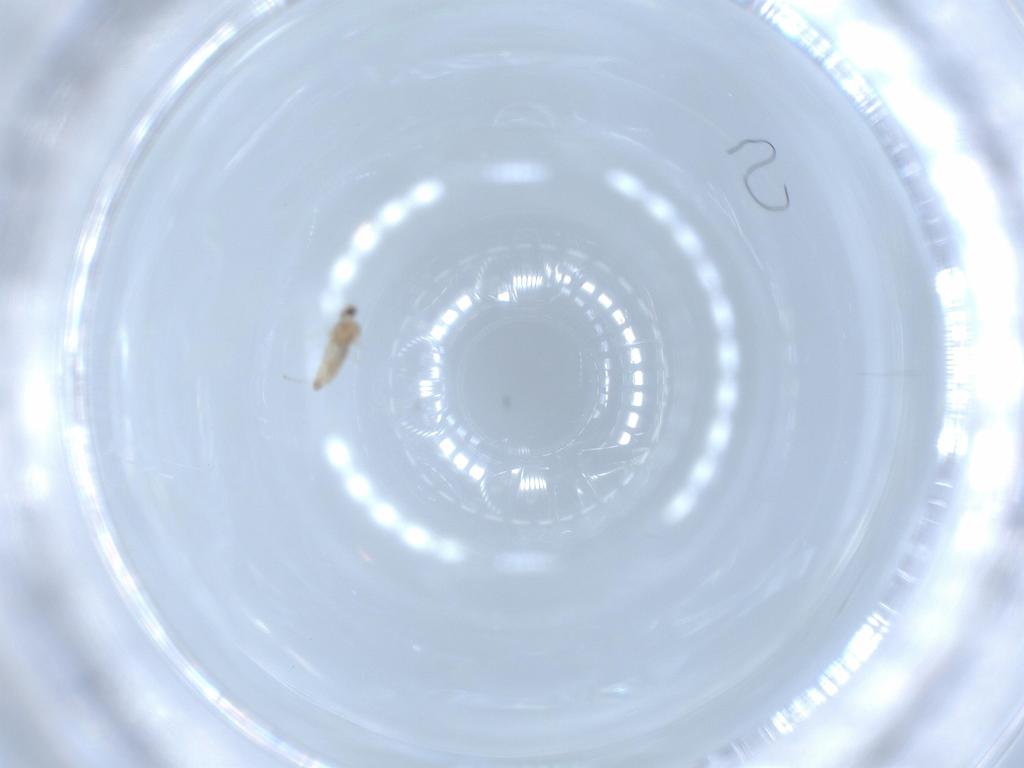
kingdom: Animalia
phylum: Arthropoda
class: Insecta
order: Diptera
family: Cecidomyiidae
